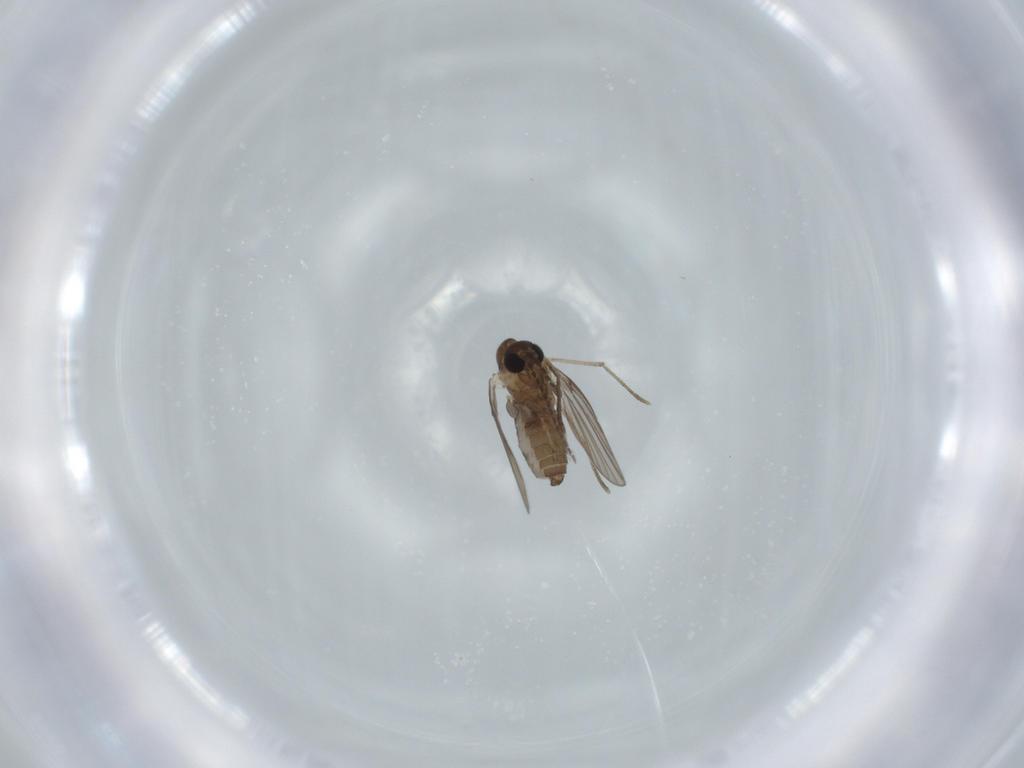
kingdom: Animalia
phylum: Arthropoda
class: Insecta
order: Diptera
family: Psychodidae
